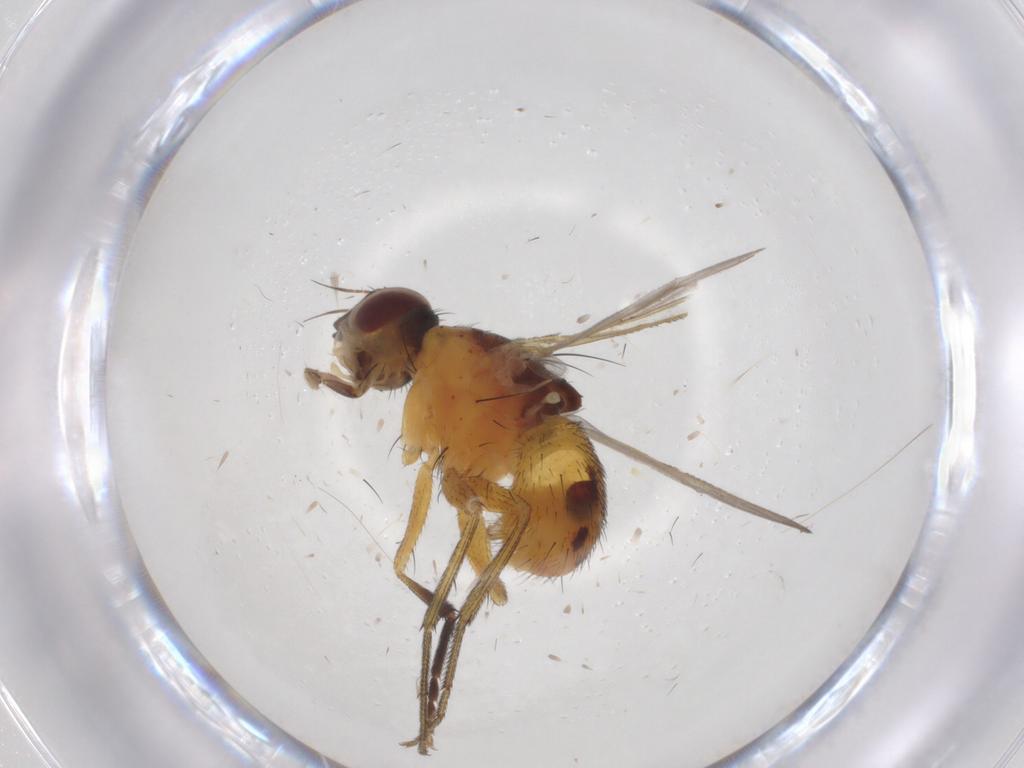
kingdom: Animalia
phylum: Arthropoda
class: Insecta
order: Diptera
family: Muscidae
